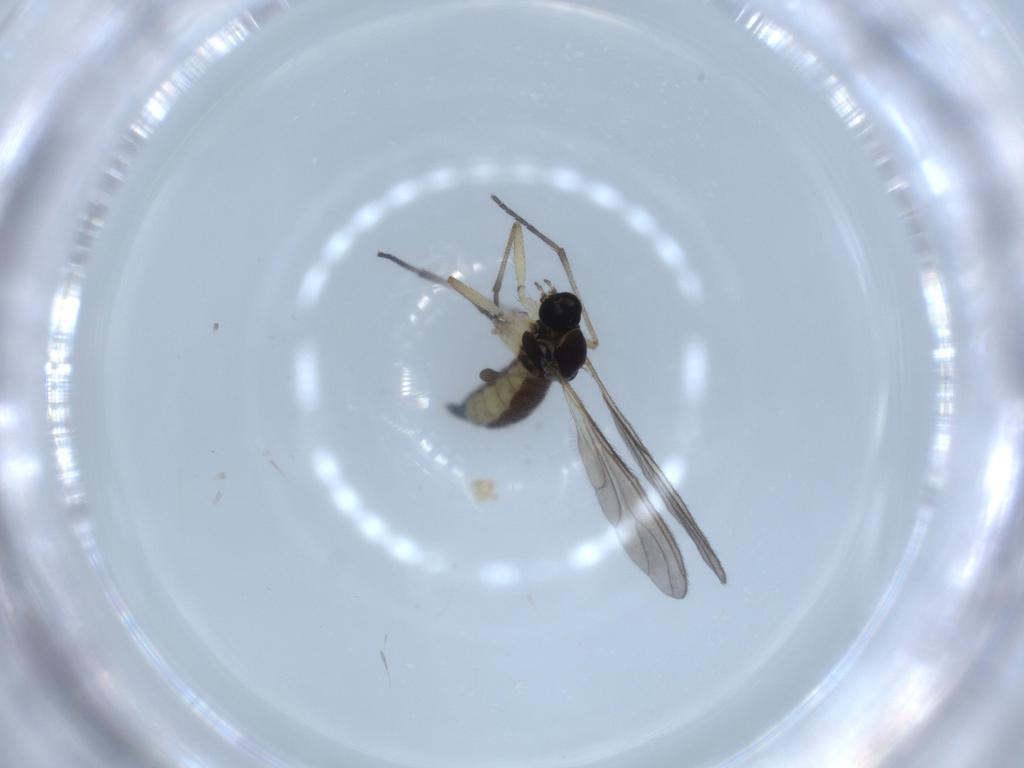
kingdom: Animalia
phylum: Arthropoda
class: Insecta
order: Diptera
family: Sciaridae
